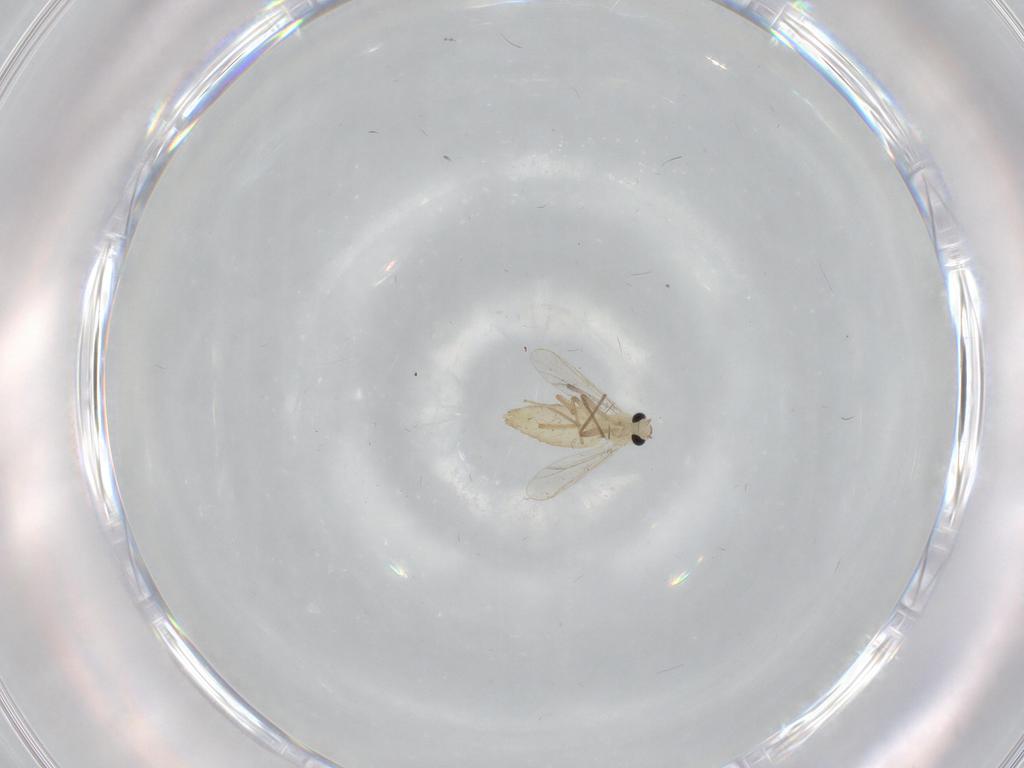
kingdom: Animalia
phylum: Arthropoda
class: Insecta
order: Diptera
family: Chironomidae
